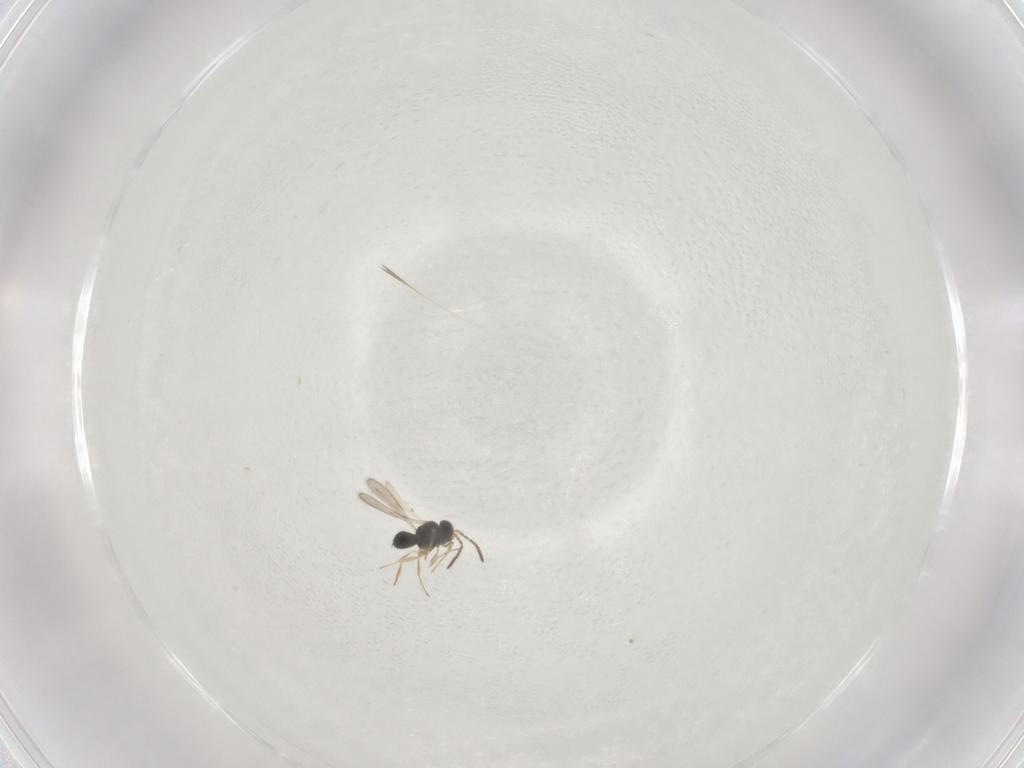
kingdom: Animalia
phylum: Arthropoda
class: Insecta
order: Hymenoptera
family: Scelionidae
